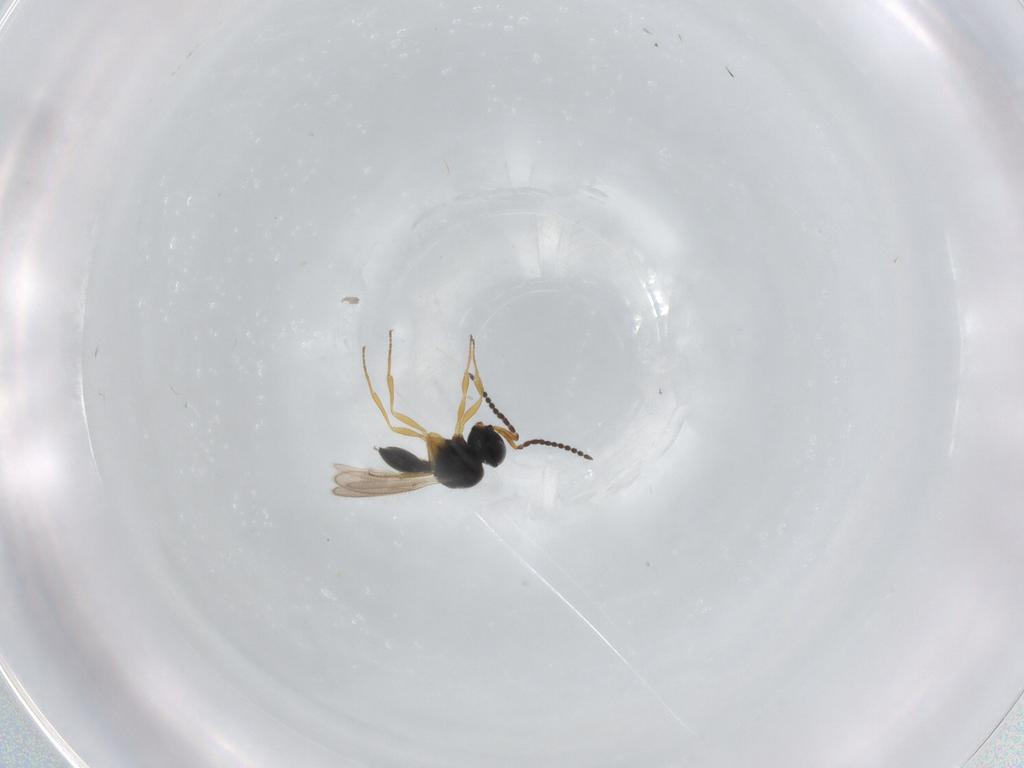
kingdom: Animalia
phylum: Arthropoda
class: Insecta
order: Hymenoptera
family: Scelionidae
